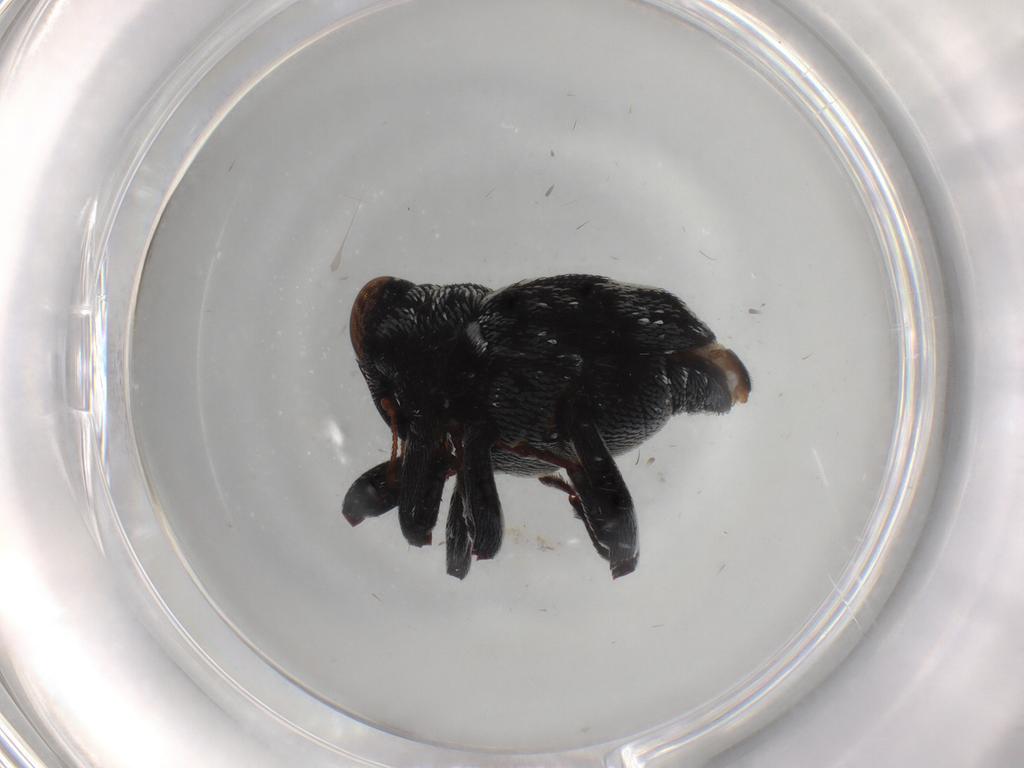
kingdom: Animalia
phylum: Arthropoda
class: Insecta
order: Coleoptera
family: Curculionidae
